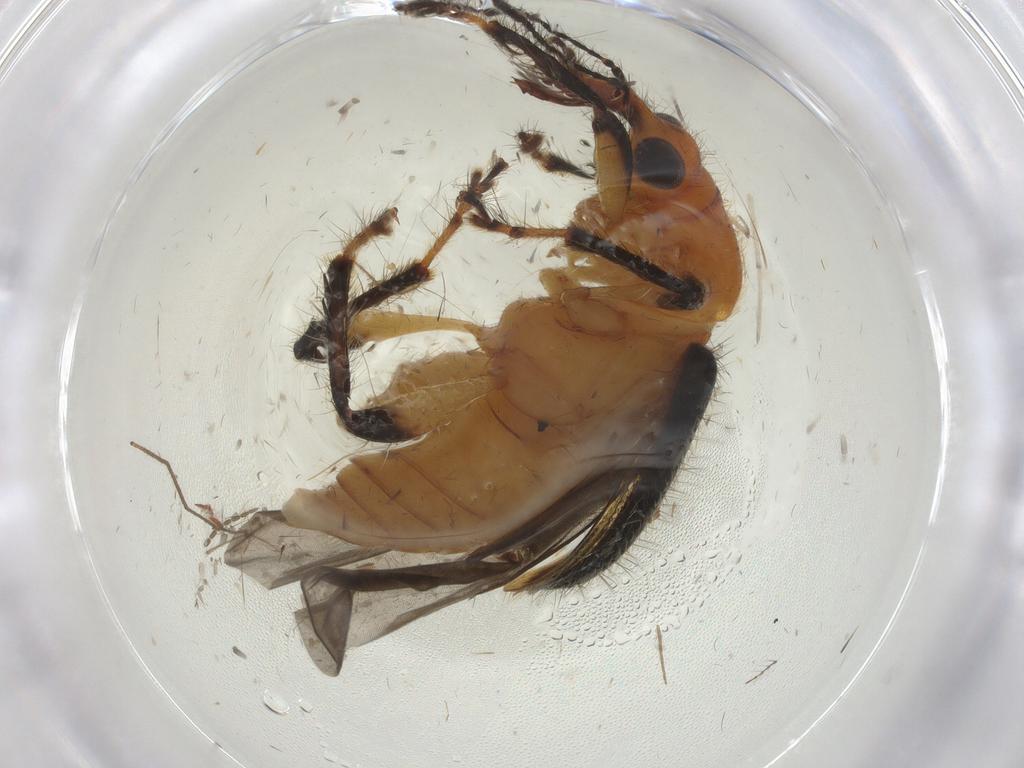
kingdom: Animalia
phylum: Arthropoda
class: Insecta
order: Coleoptera
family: Attelabidae
